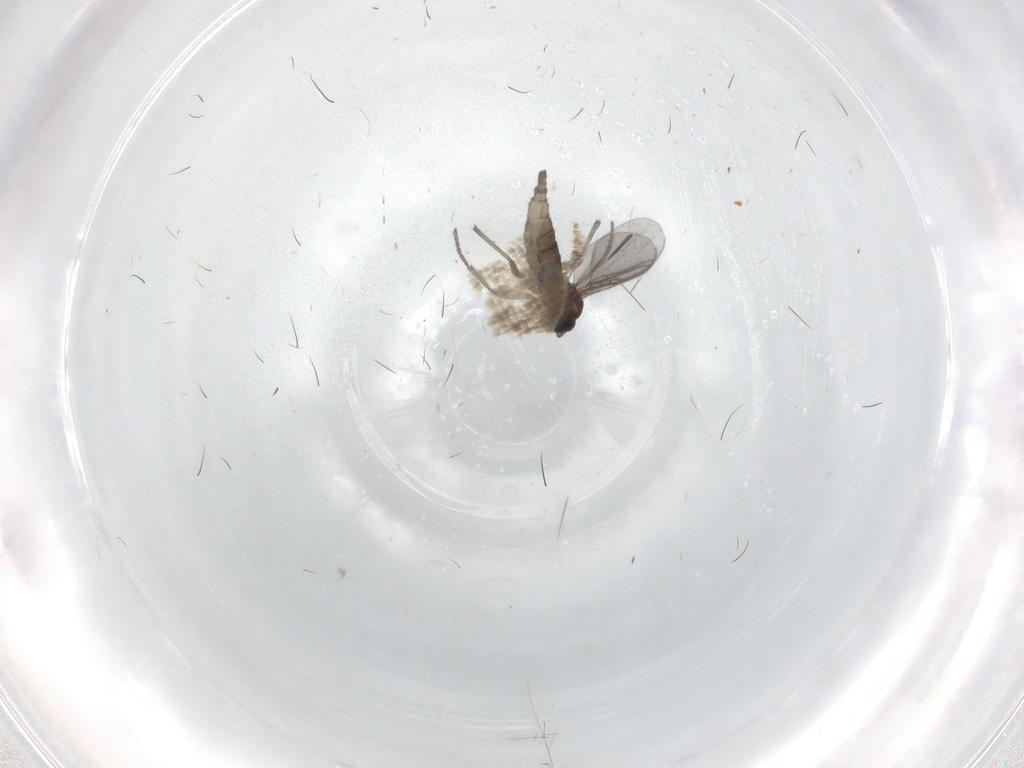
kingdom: Animalia
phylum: Arthropoda
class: Insecta
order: Diptera
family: Sciaridae
